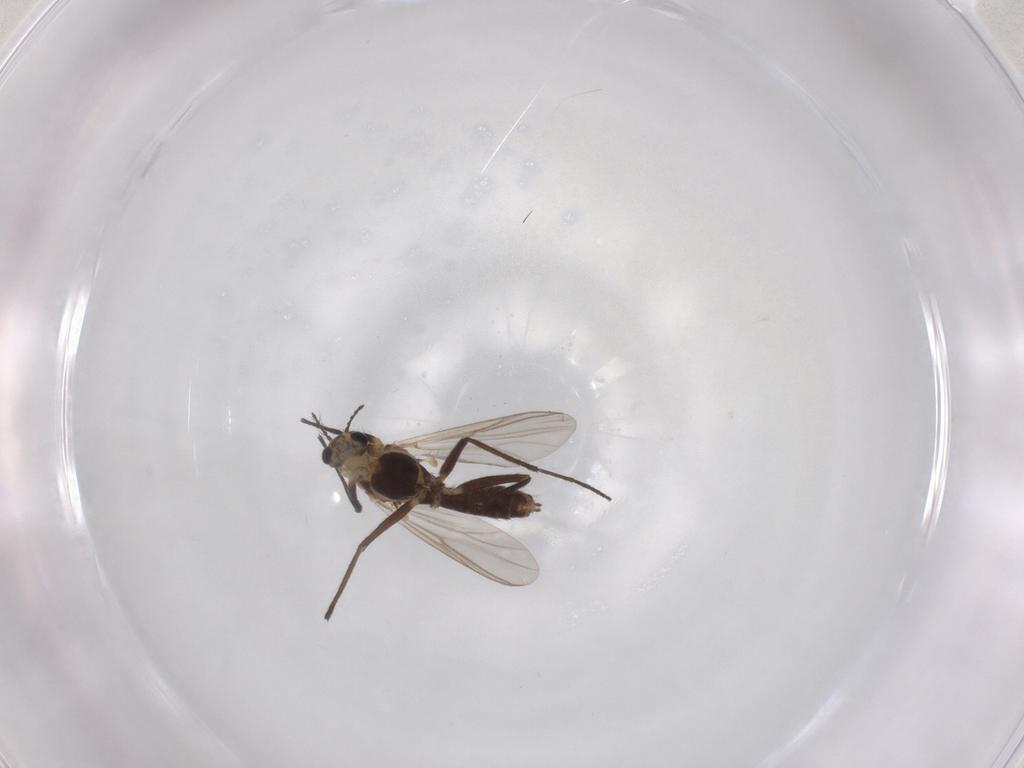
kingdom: Animalia
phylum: Arthropoda
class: Insecta
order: Diptera
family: Chironomidae
